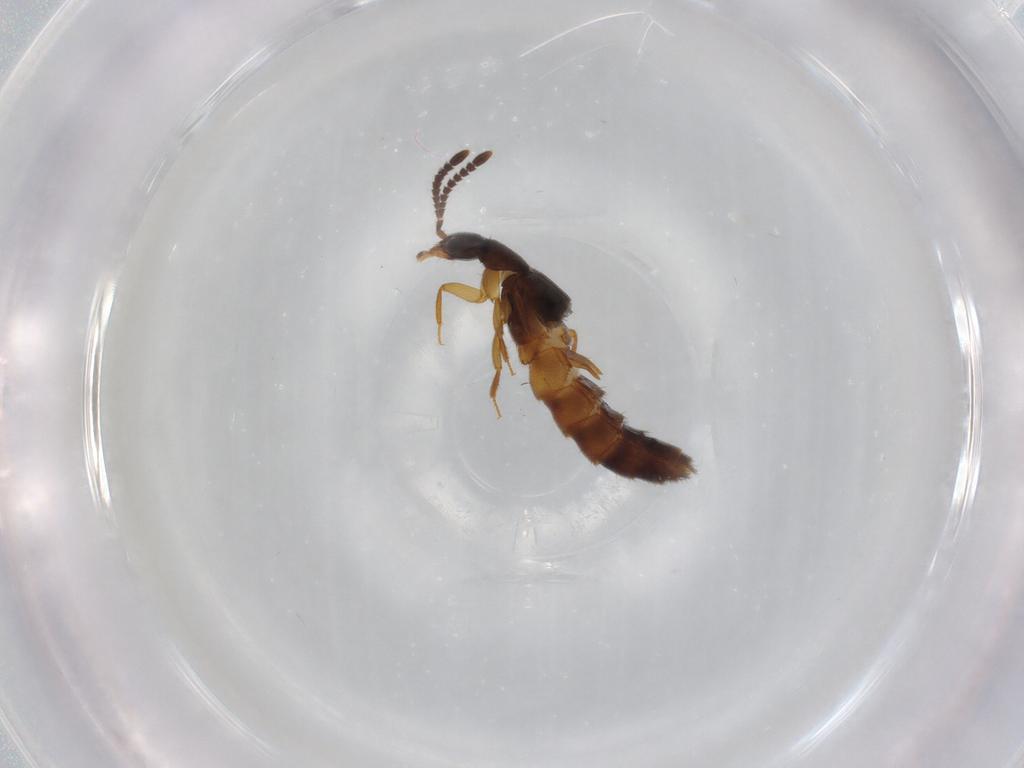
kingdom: Animalia
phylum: Arthropoda
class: Insecta
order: Coleoptera
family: Staphylinidae
